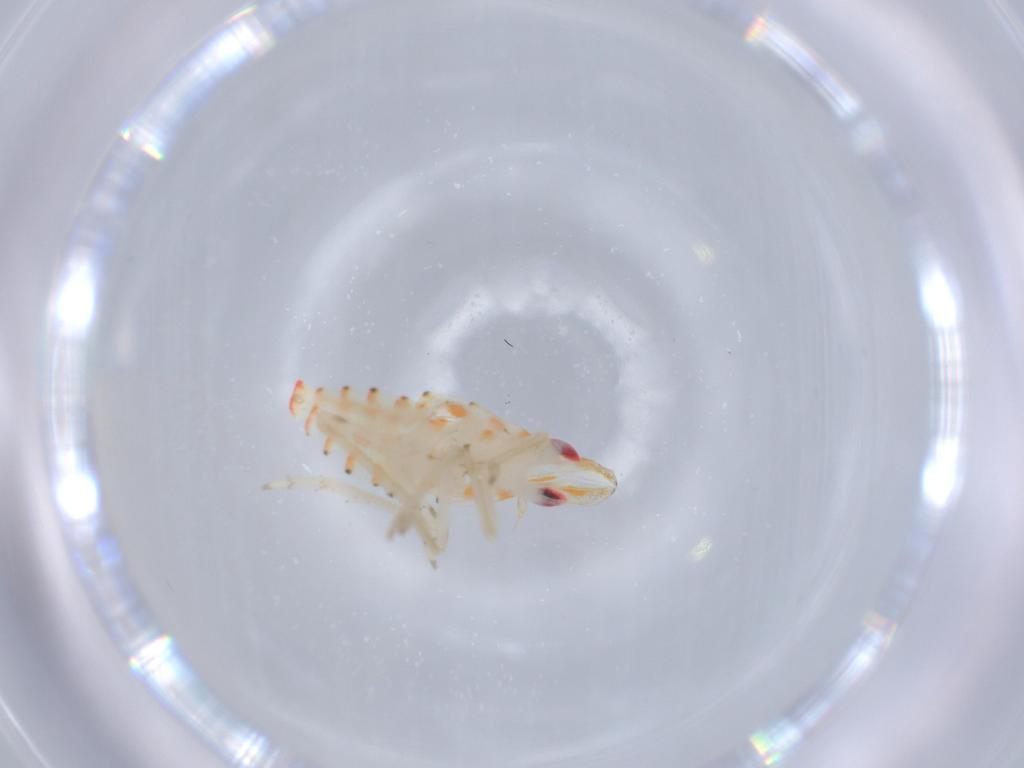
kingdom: Animalia
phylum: Arthropoda
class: Insecta
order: Hemiptera
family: Tropiduchidae
